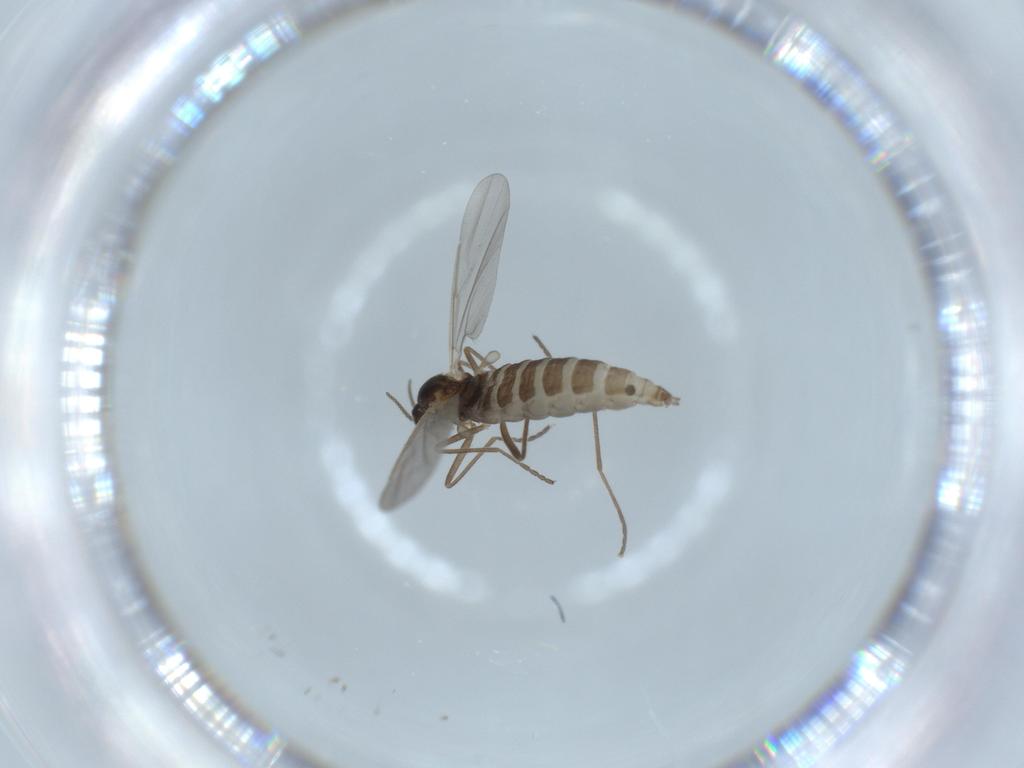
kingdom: Animalia
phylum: Arthropoda
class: Insecta
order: Diptera
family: Cecidomyiidae
